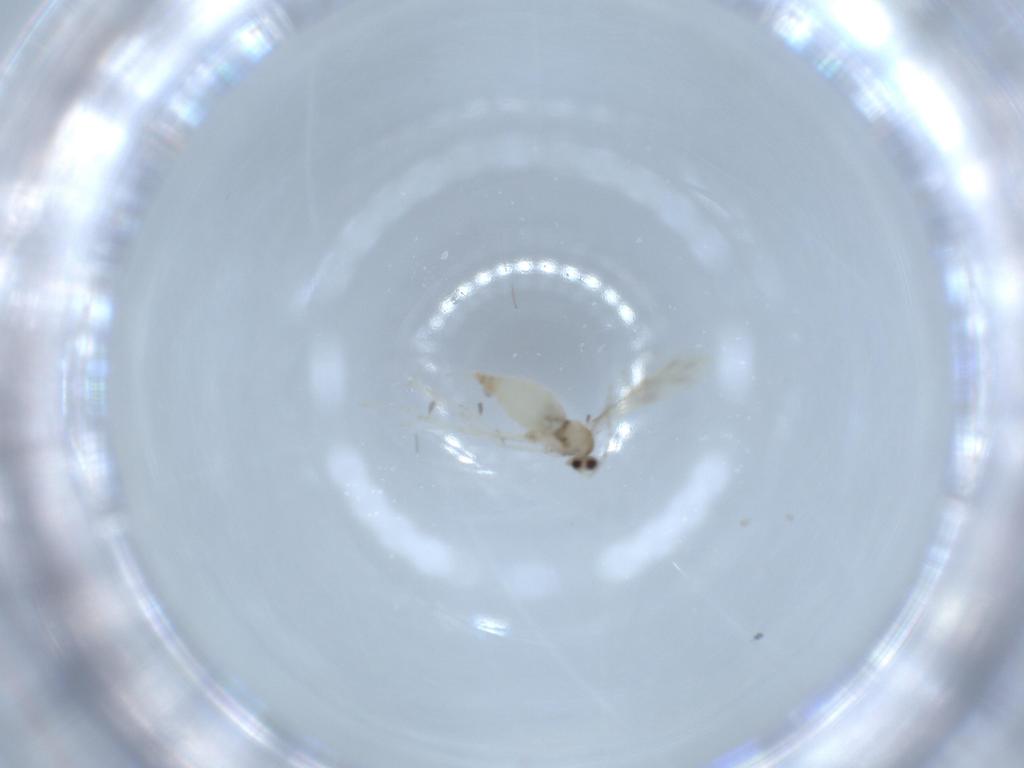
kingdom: Animalia
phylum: Arthropoda
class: Insecta
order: Diptera
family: Cecidomyiidae
